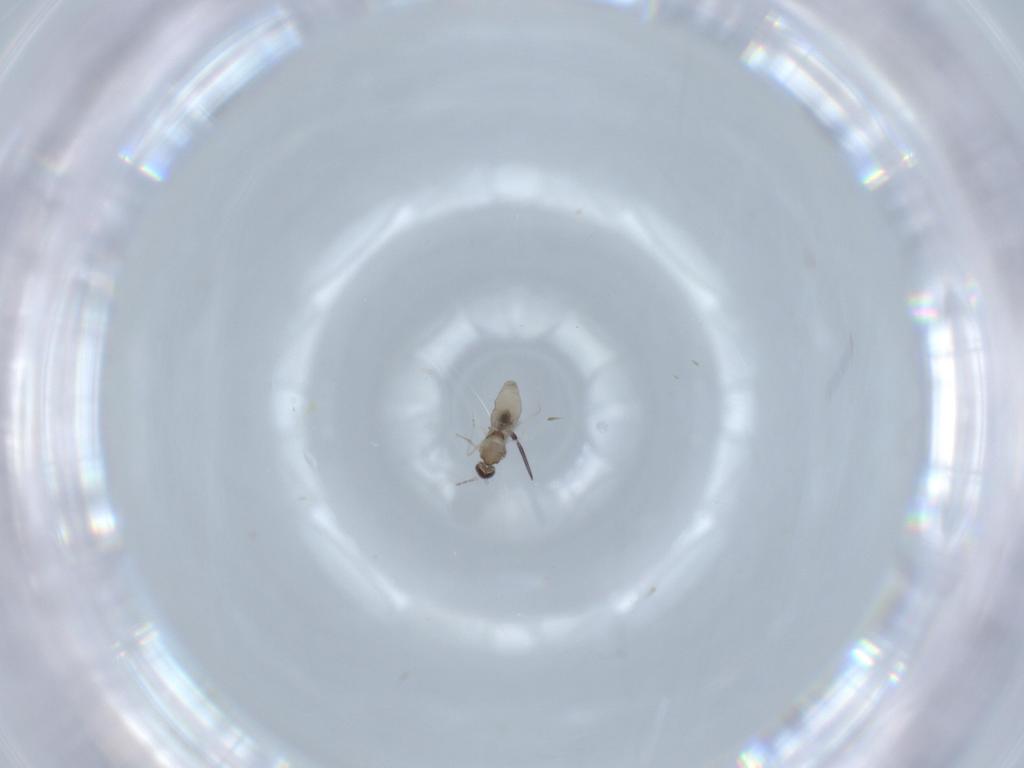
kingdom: Animalia
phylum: Arthropoda
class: Insecta
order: Diptera
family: Cecidomyiidae
